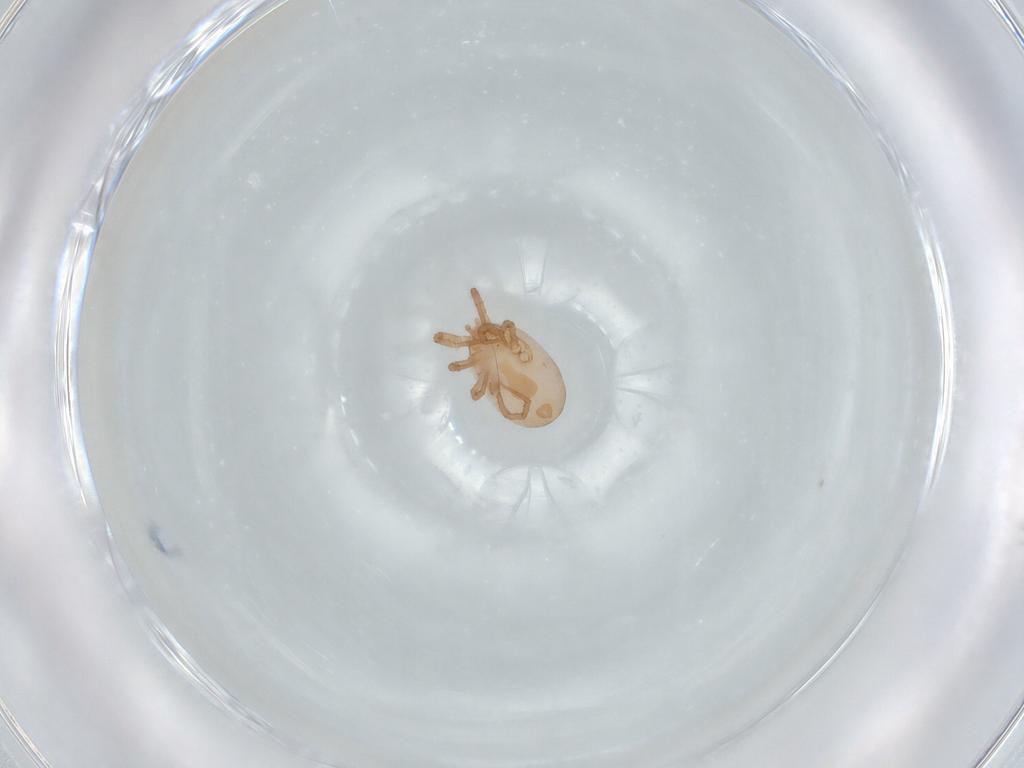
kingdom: Animalia
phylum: Arthropoda
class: Arachnida
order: Mesostigmata
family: Parasitidae
